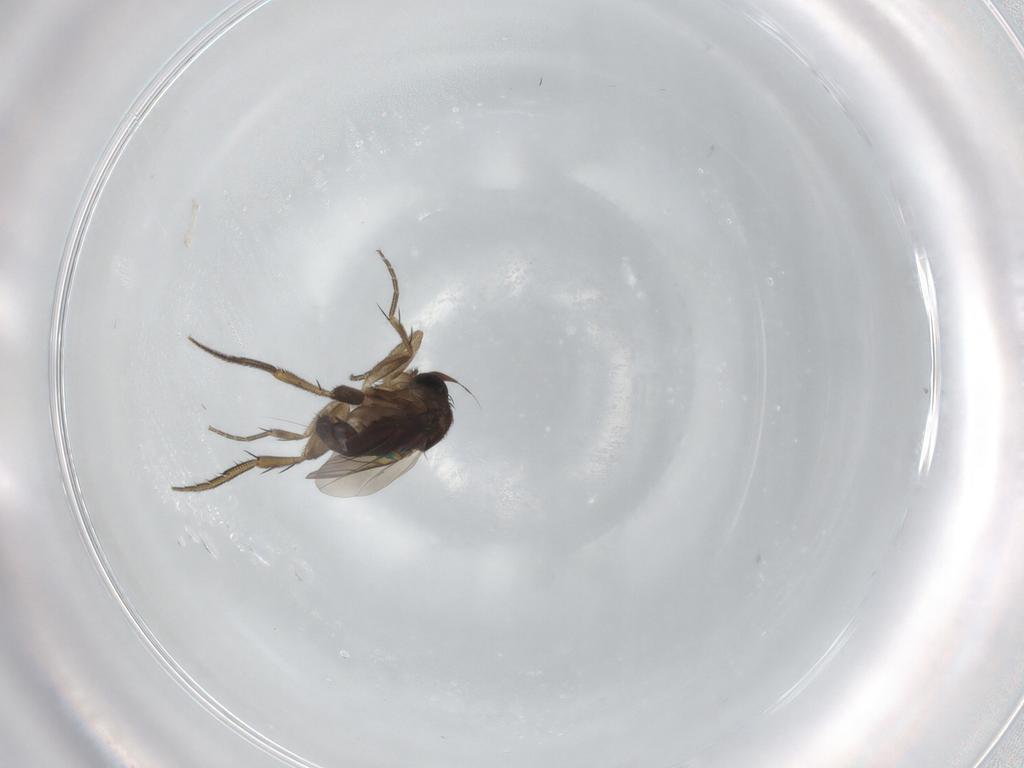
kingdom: Animalia
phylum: Arthropoda
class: Insecta
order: Diptera
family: Phoridae
